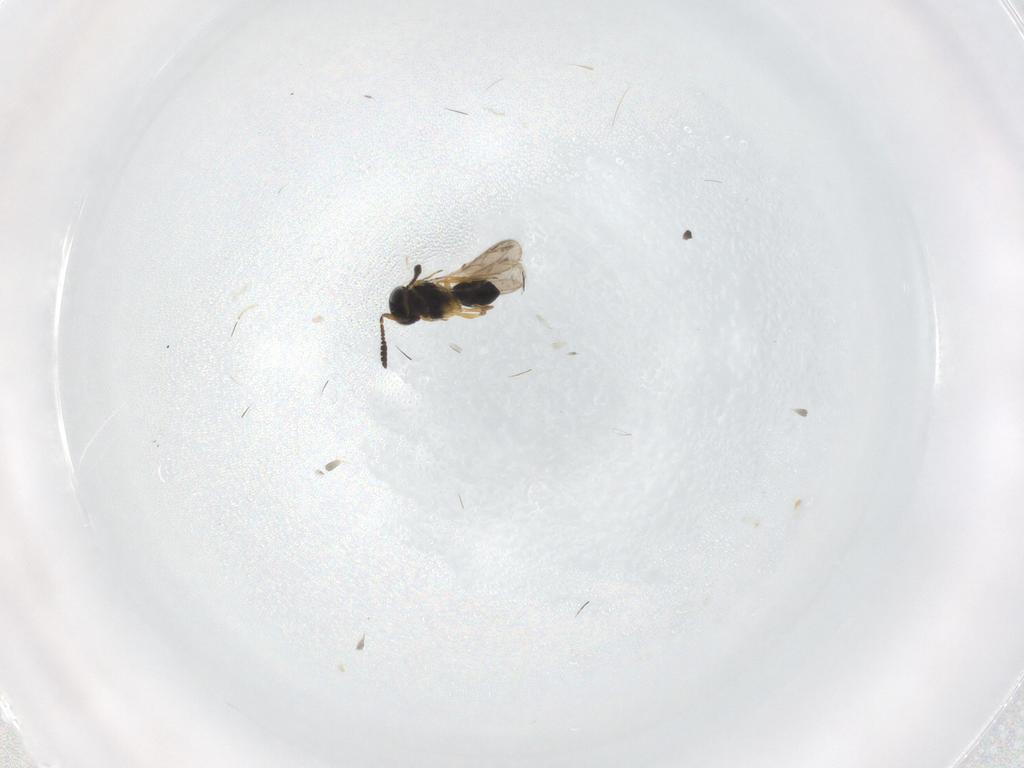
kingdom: Animalia
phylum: Arthropoda
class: Insecta
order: Hymenoptera
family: Scelionidae
